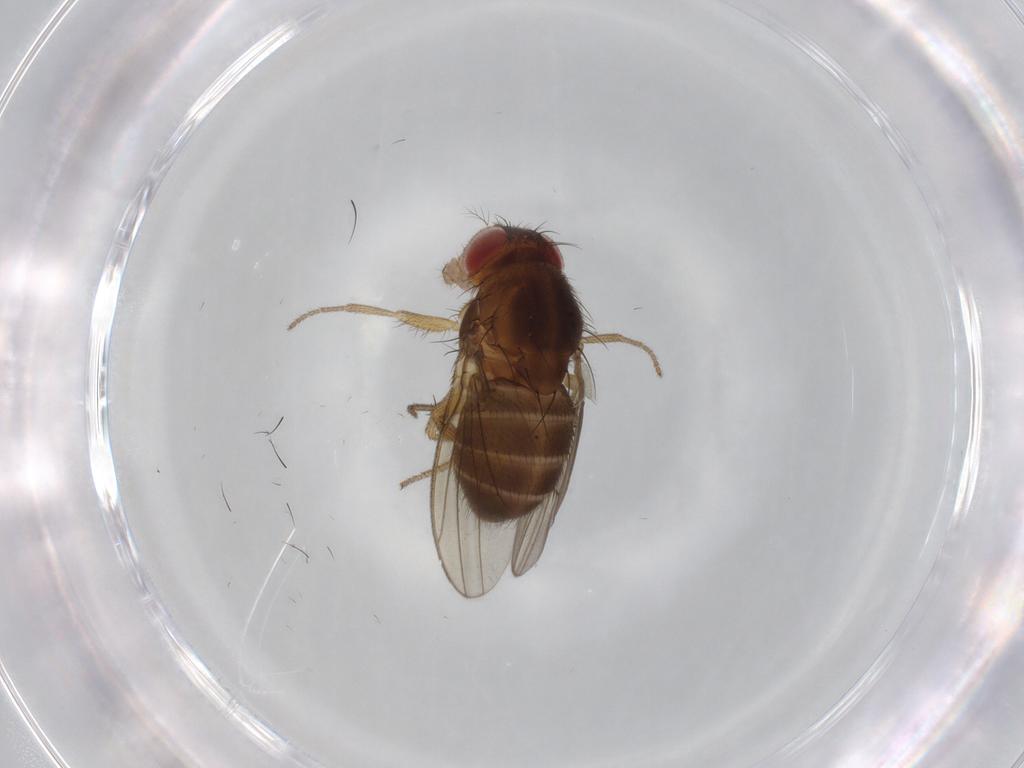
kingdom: Animalia
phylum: Arthropoda
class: Insecta
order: Diptera
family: Drosophilidae
